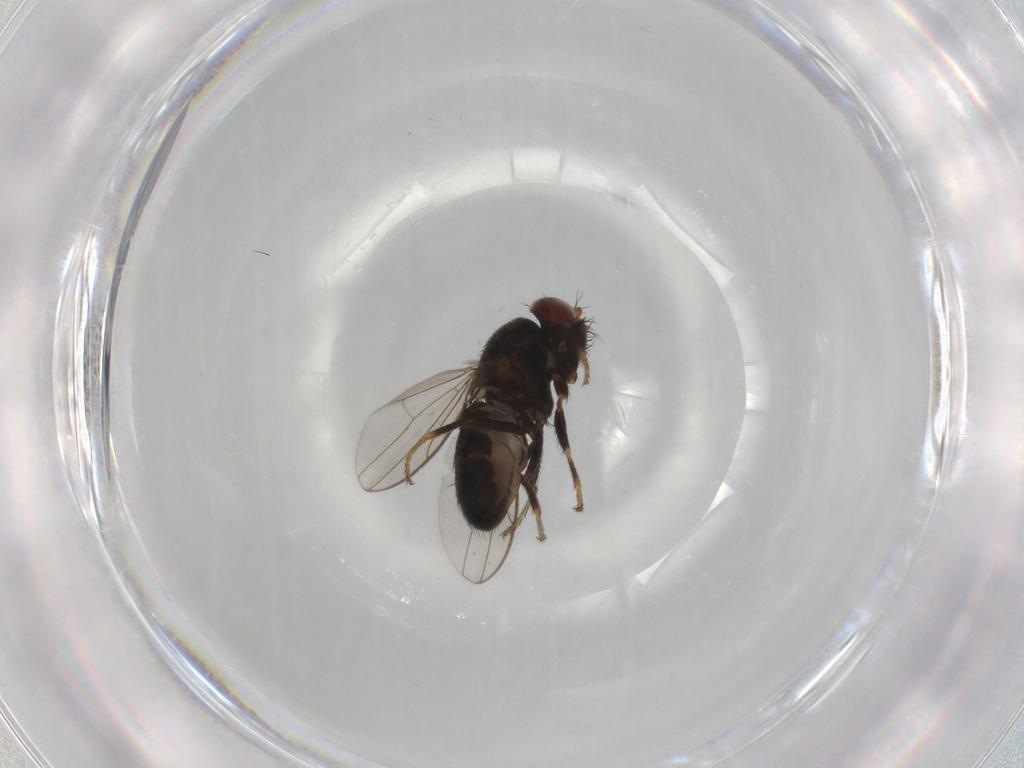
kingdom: Animalia
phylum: Arthropoda
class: Insecta
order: Diptera
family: Ephydridae
